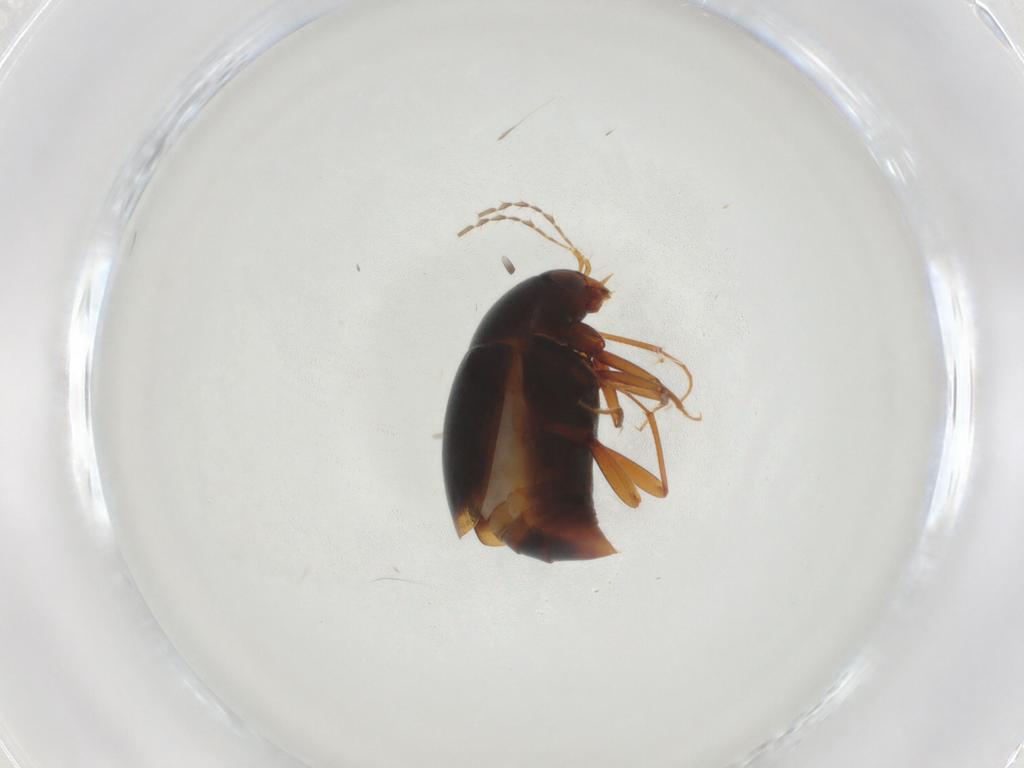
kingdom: Animalia
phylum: Arthropoda
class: Insecta
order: Coleoptera
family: Staphylinidae
